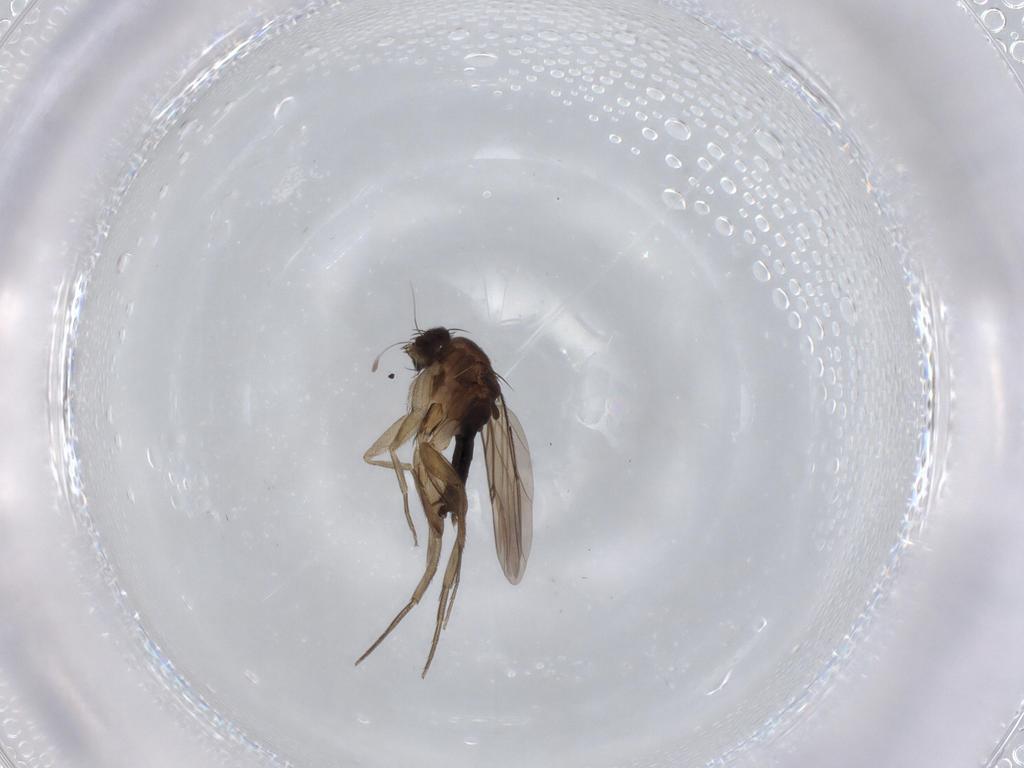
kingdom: Animalia
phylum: Arthropoda
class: Insecta
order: Diptera
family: Phoridae
